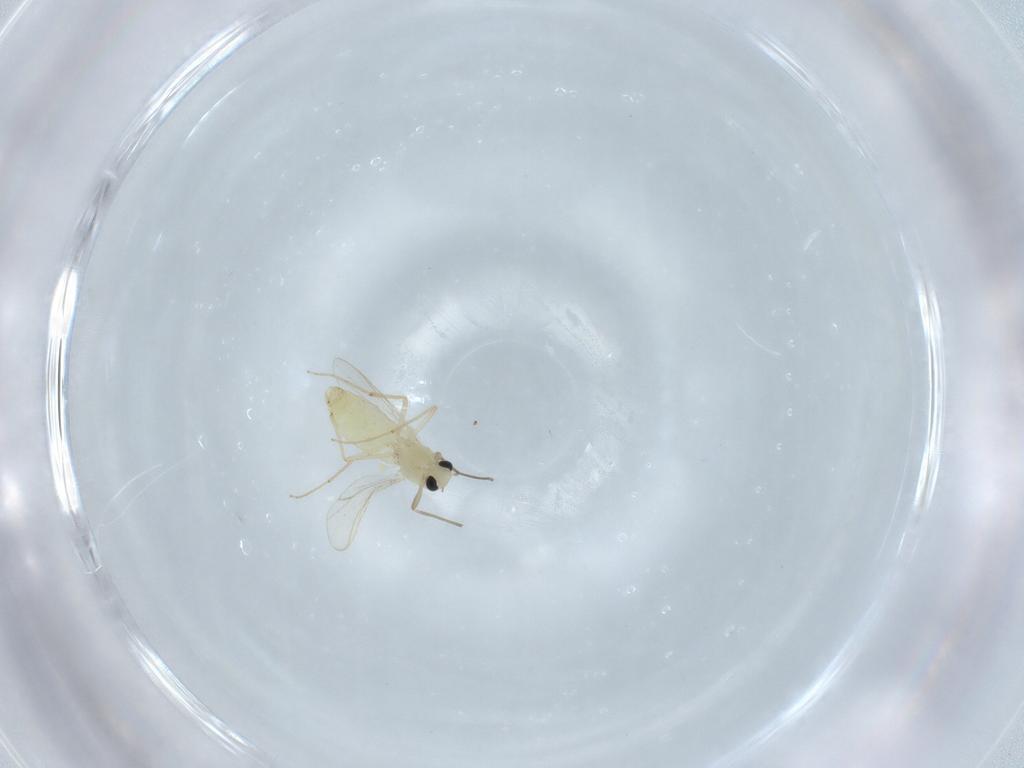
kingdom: Animalia
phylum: Arthropoda
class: Insecta
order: Diptera
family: Chironomidae
